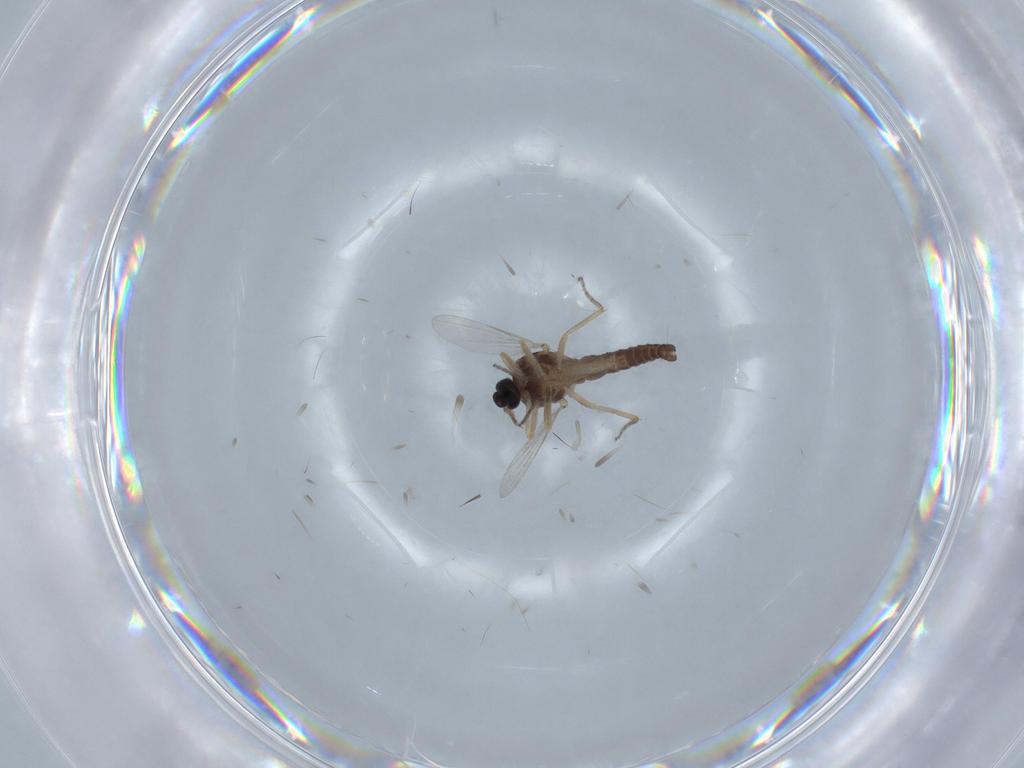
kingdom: Animalia
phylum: Arthropoda
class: Insecta
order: Diptera
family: Ceratopogonidae
